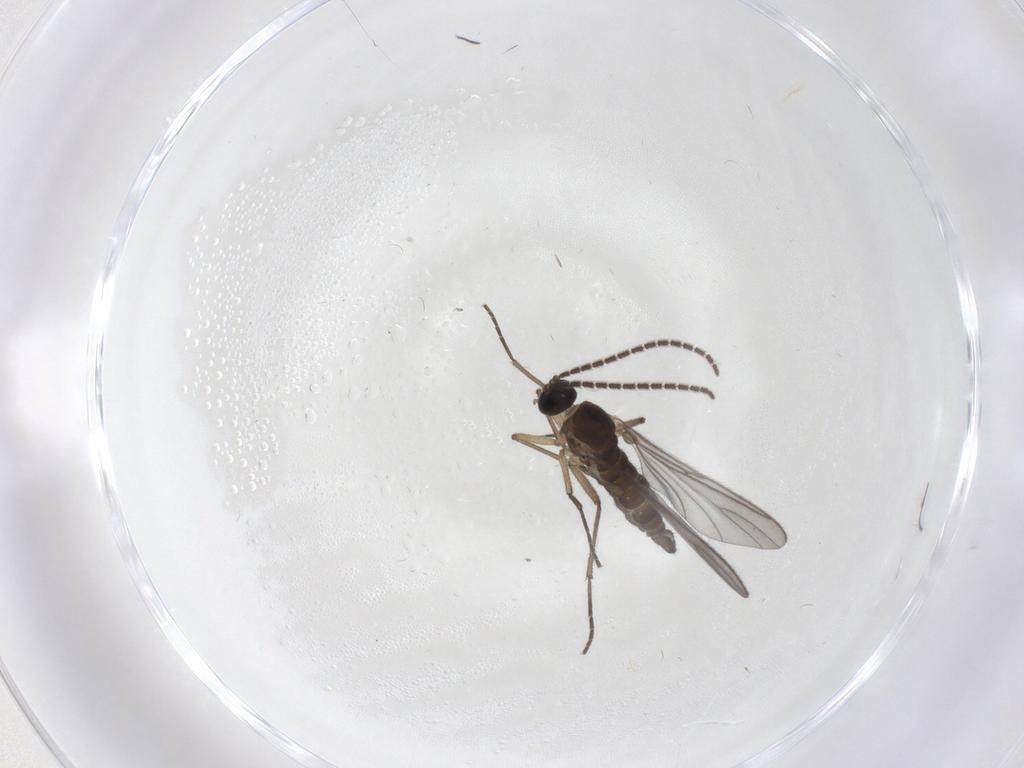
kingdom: Animalia
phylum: Arthropoda
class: Insecta
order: Diptera
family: Sciaridae
